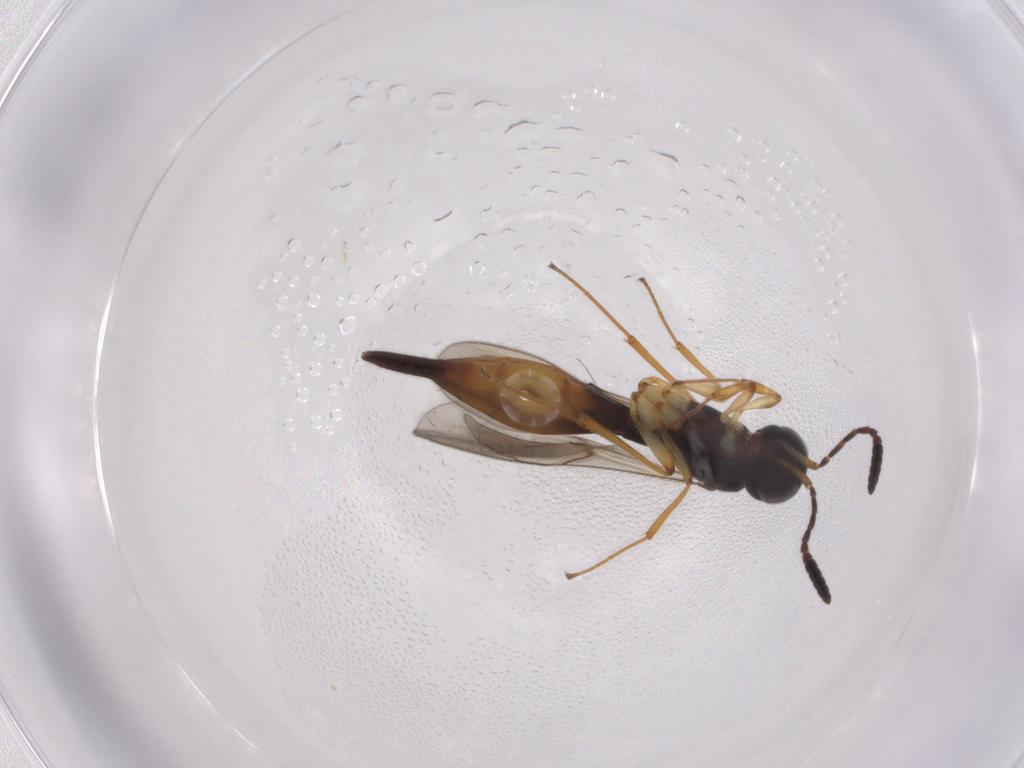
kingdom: Animalia
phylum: Arthropoda
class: Insecta
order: Hymenoptera
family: Scelionidae
